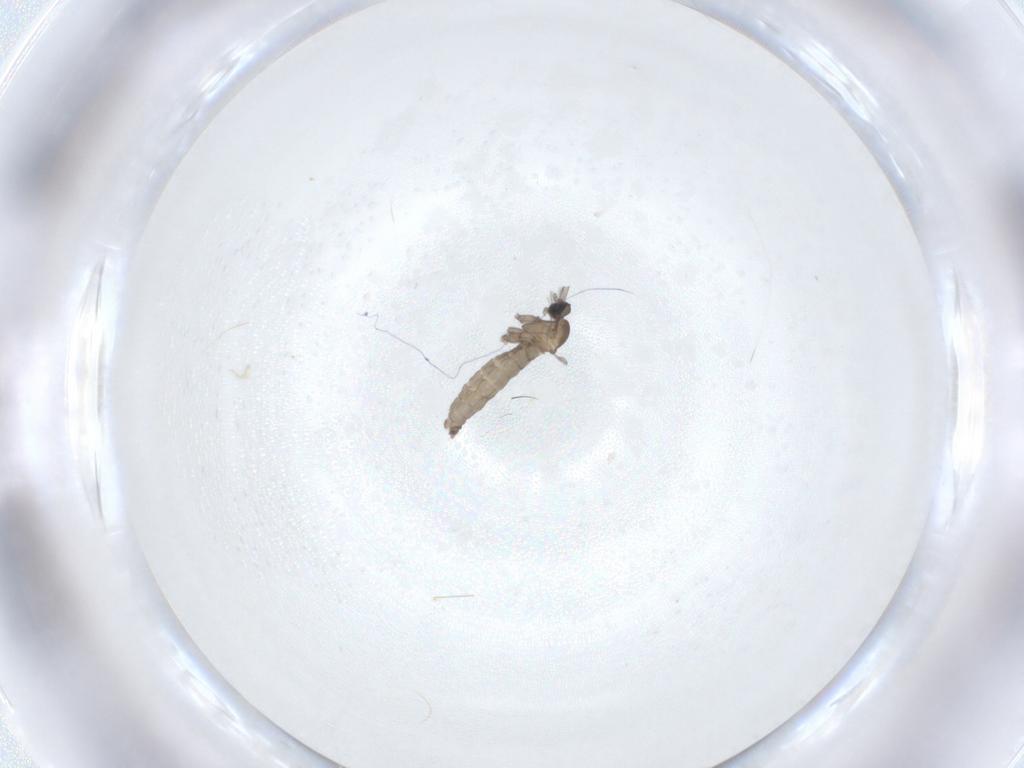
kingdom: Animalia
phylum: Arthropoda
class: Insecta
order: Diptera
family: Cecidomyiidae
